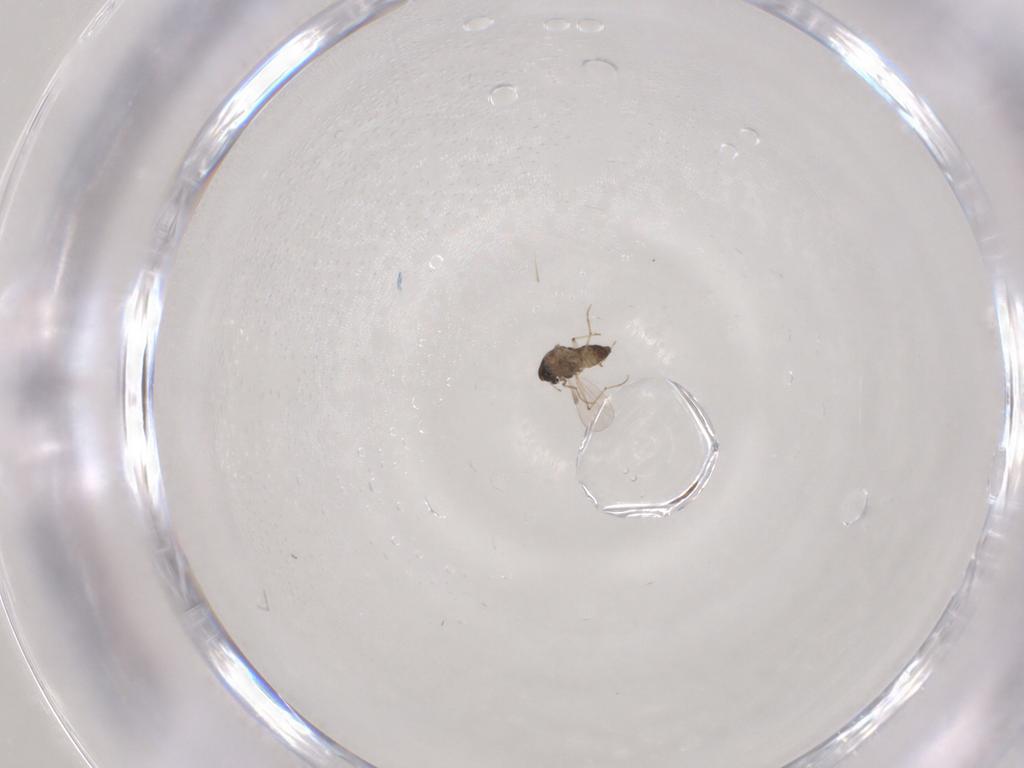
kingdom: Animalia
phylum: Arthropoda
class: Insecta
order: Diptera
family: Chironomidae
